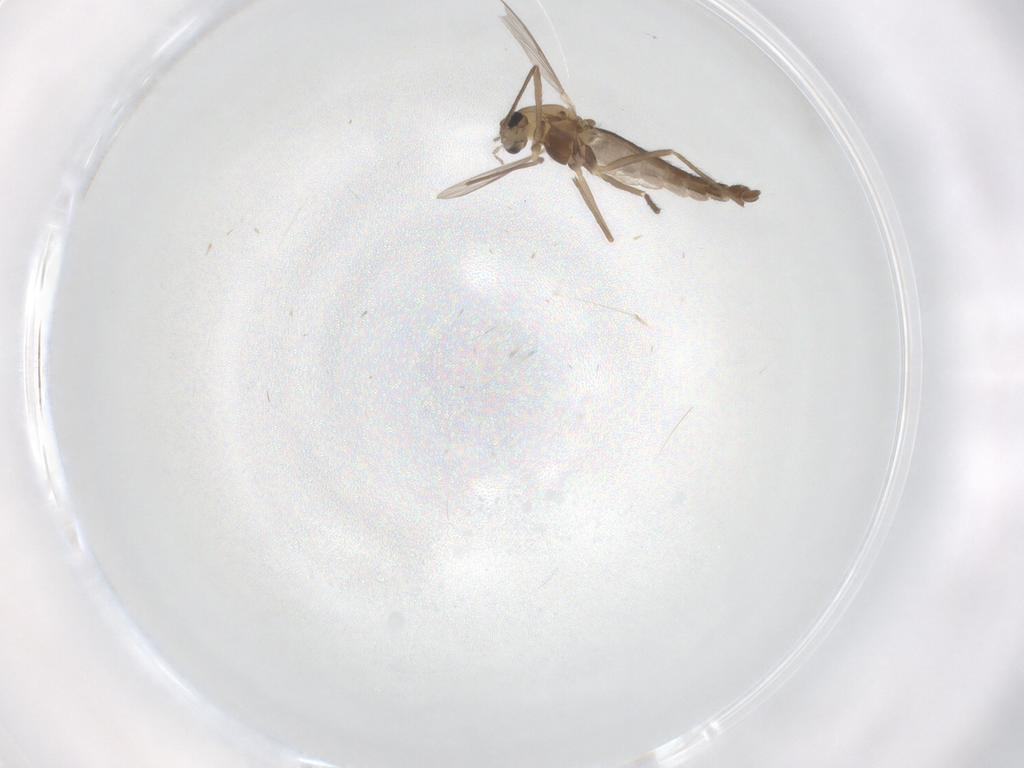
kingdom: Animalia
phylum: Arthropoda
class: Insecta
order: Diptera
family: Chironomidae
